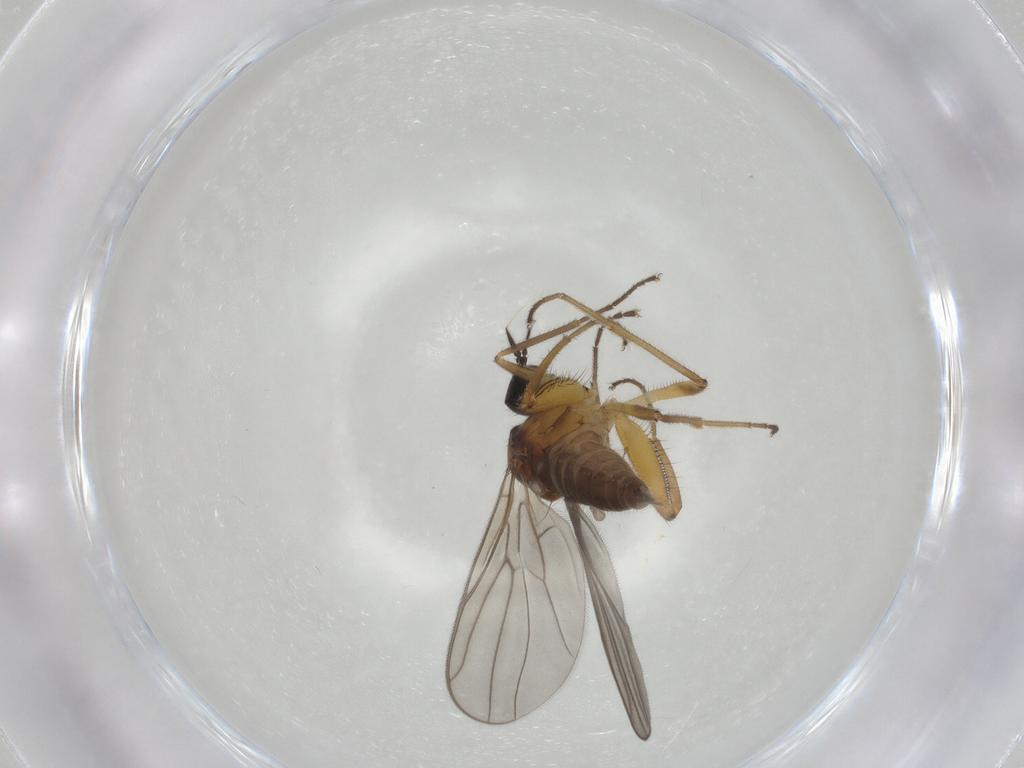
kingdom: Animalia
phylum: Arthropoda
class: Insecta
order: Diptera
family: Hybotidae
